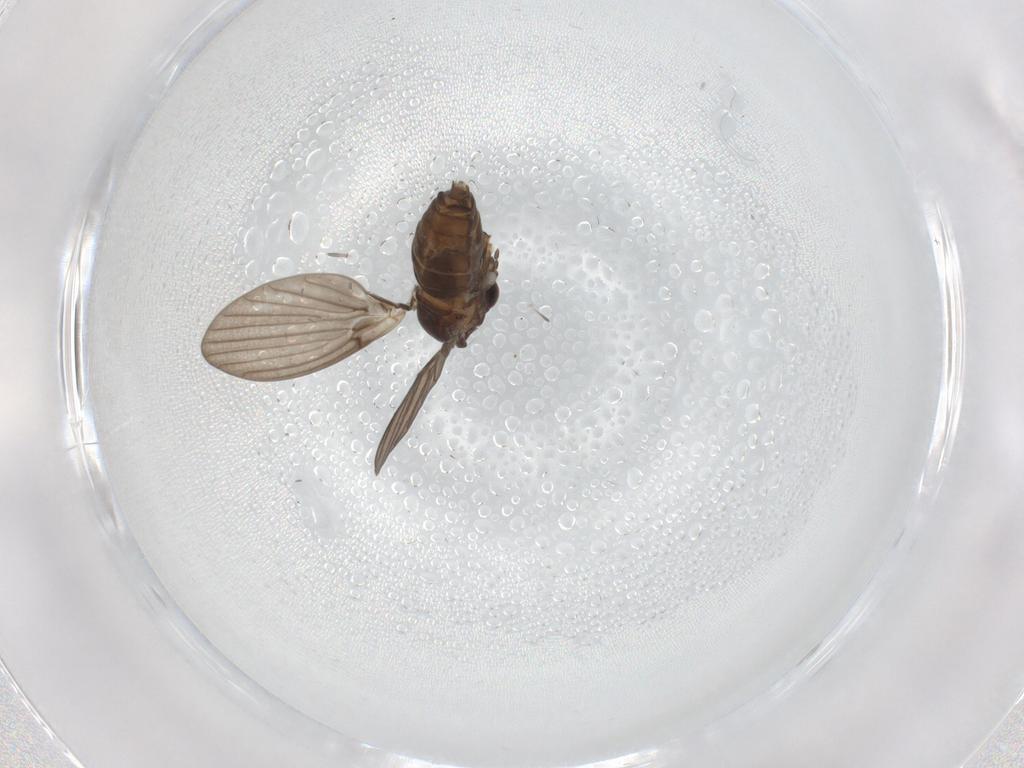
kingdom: Animalia
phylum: Arthropoda
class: Insecta
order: Diptera
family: Psychodidae
